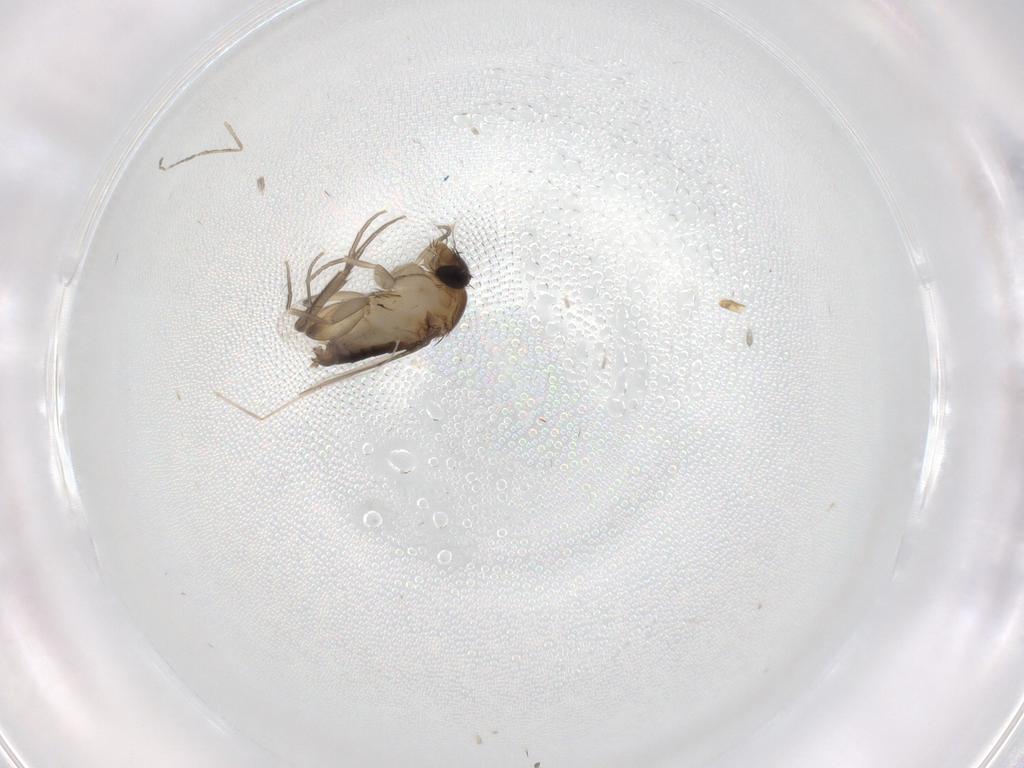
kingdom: Animalia
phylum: Arthropoda
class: Insecta
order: Diptera
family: Phoridae
